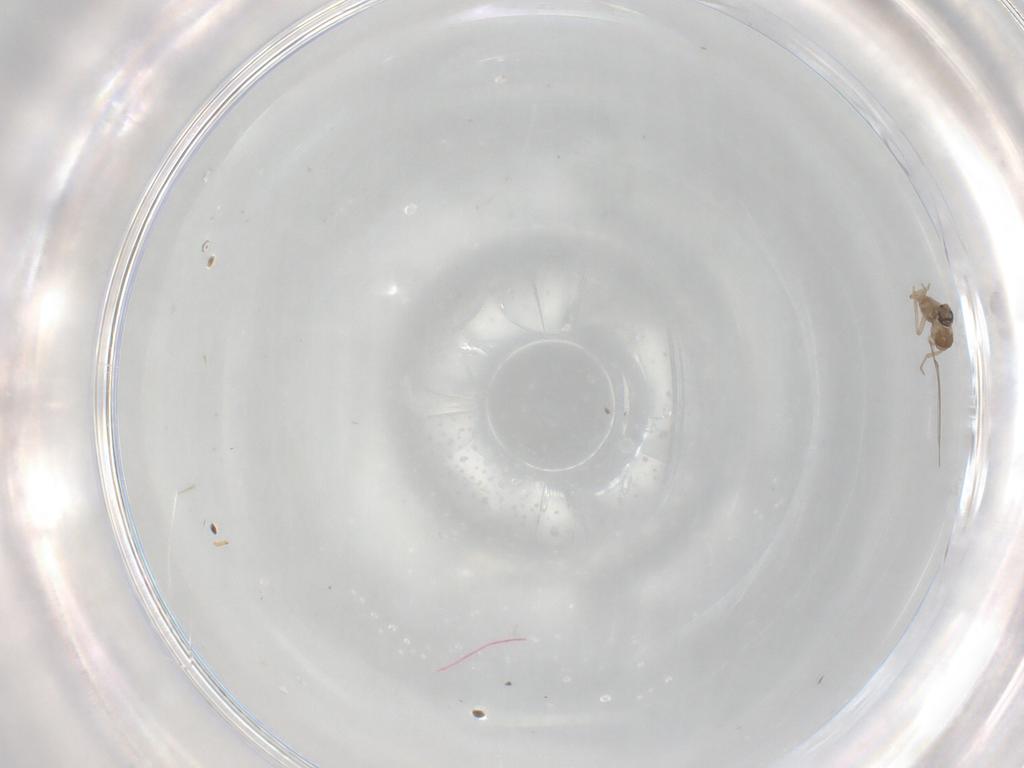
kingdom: Animalia
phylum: Arthropoda
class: Insecta
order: Diptera
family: Cecidomyiidae
